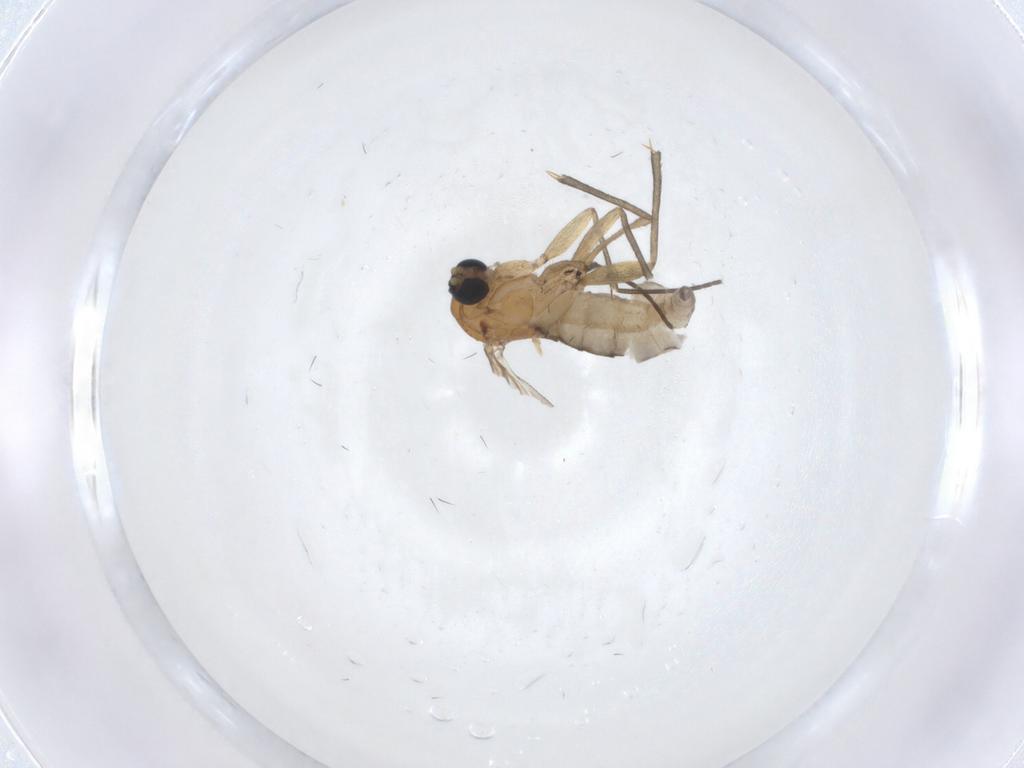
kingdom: Animalia
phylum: Arthropoda
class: Insecta
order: Diptera
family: Sciaridae
